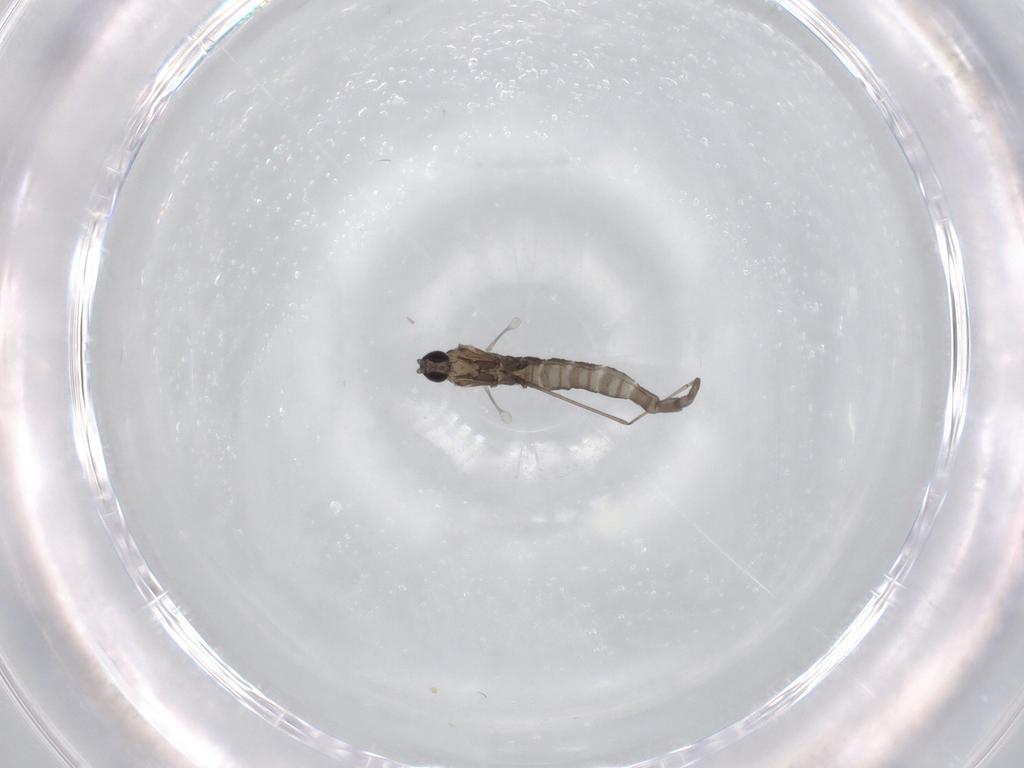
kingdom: Animalia
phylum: Arthropoda
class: Insecta
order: Diptera
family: Cecidomyiidae
